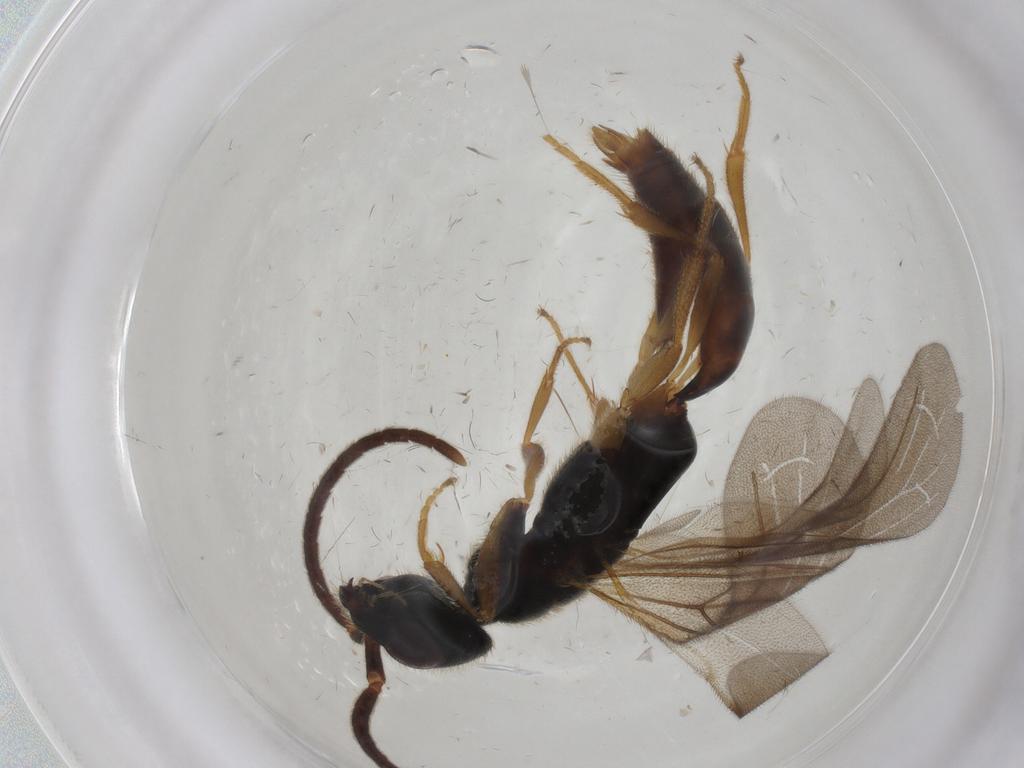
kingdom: Animalia
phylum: Arthropoda
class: Insecta
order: Hymenoptera
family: Bethylidae
